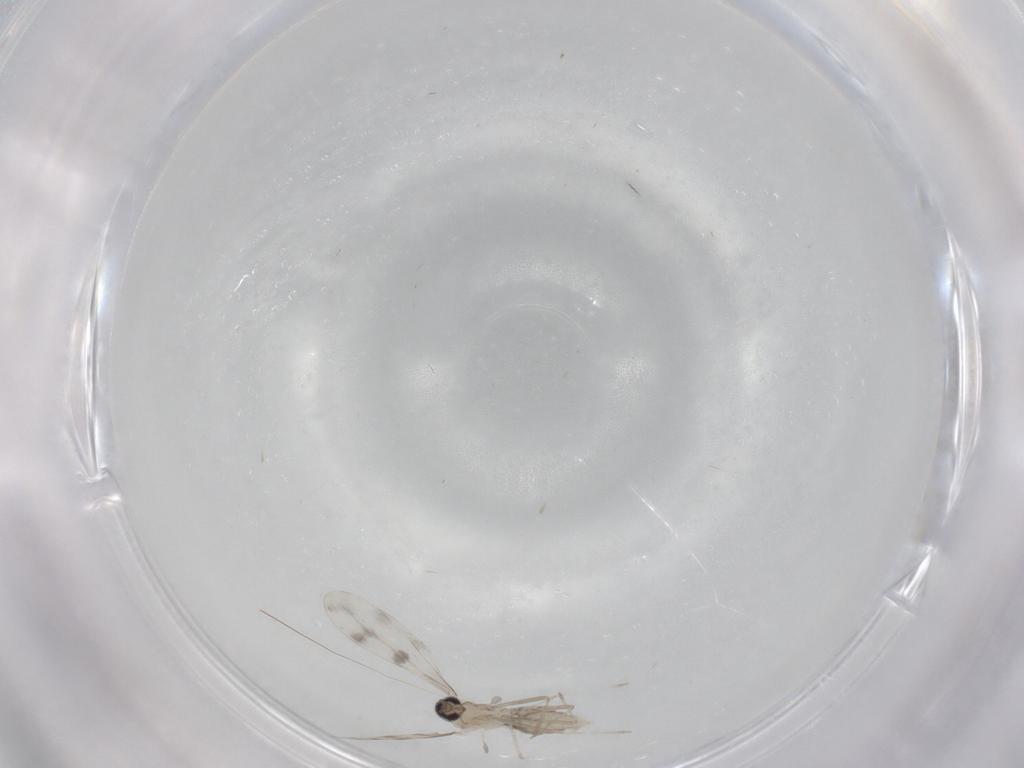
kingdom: Animalia
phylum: Arthropoda
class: Insecta
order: Diptera
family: Cecidomyiidae
